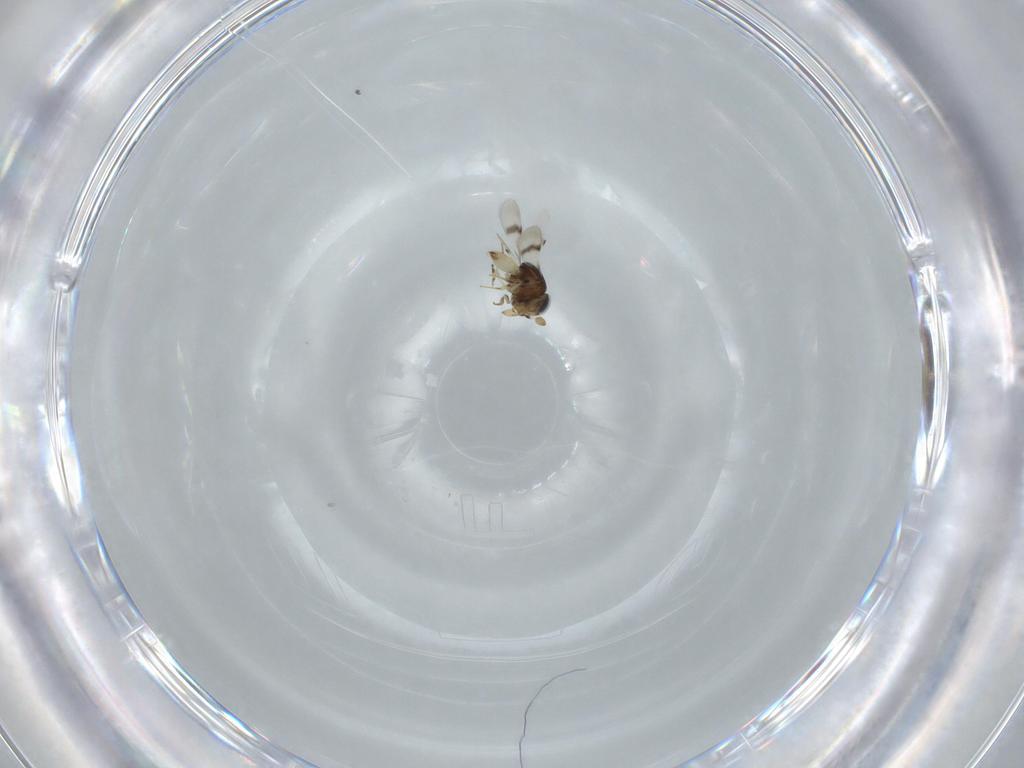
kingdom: Animalia
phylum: Arthropoda
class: Insecta
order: Hymenoptera
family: Scelionidae
